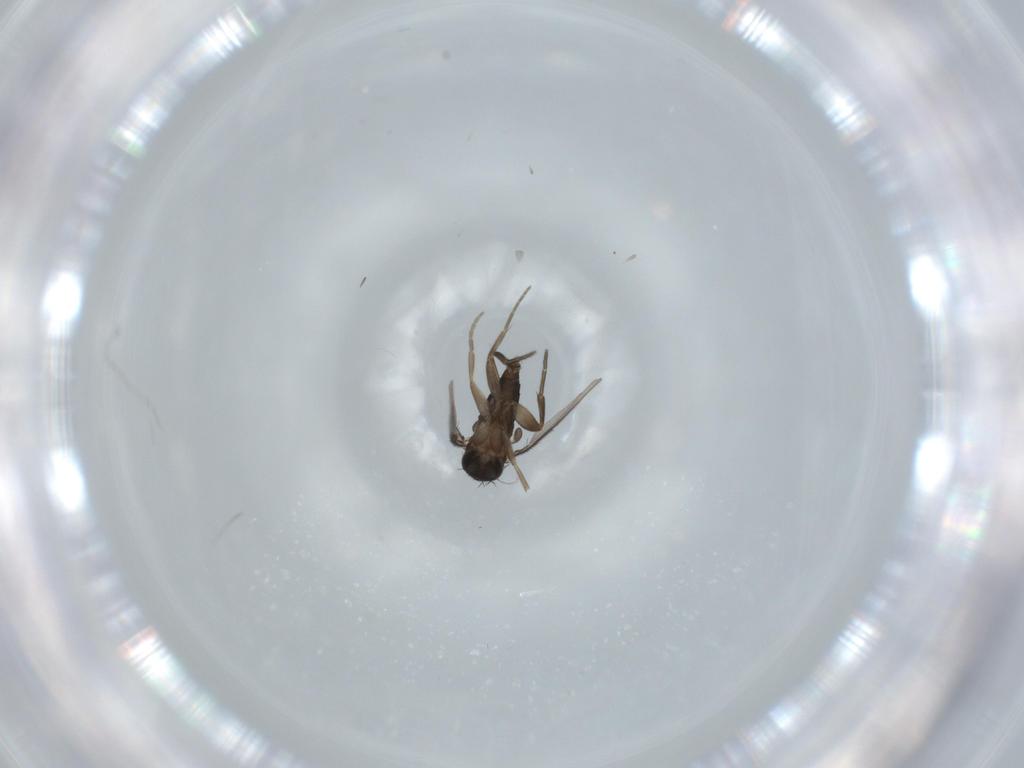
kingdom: Animalia
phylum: Arthropoda
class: Insecta
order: Diptera
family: Phoridae
